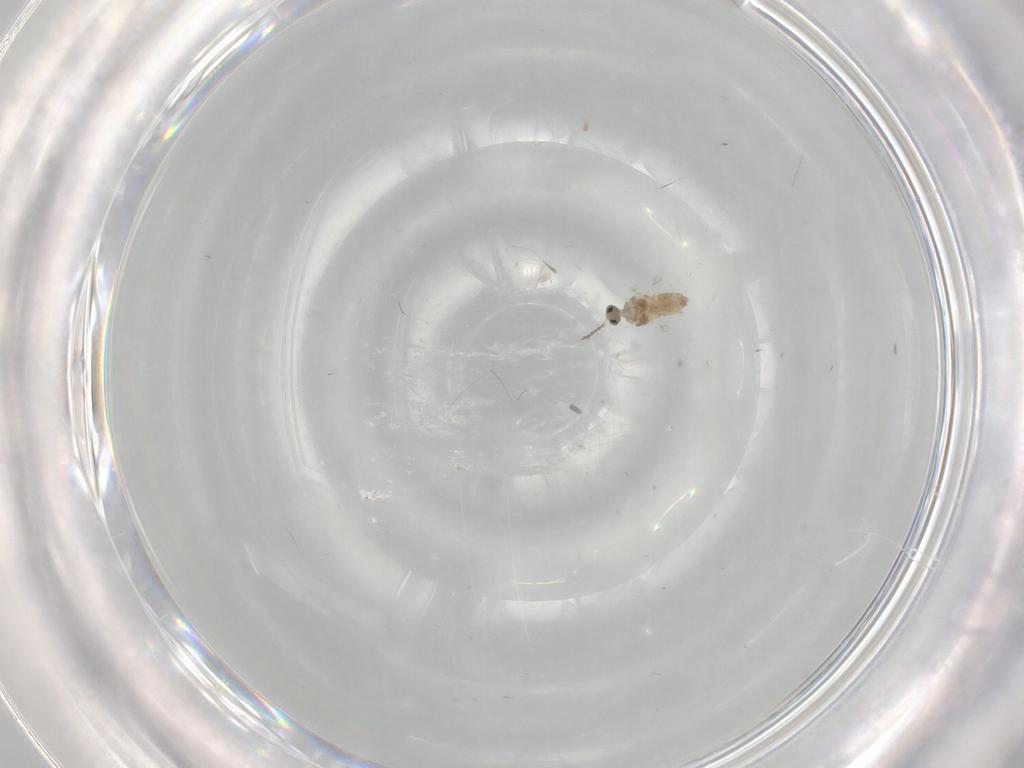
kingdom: Animalia
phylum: Arthropoda
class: Insecta
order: Diptera
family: Cecidomyiidae
